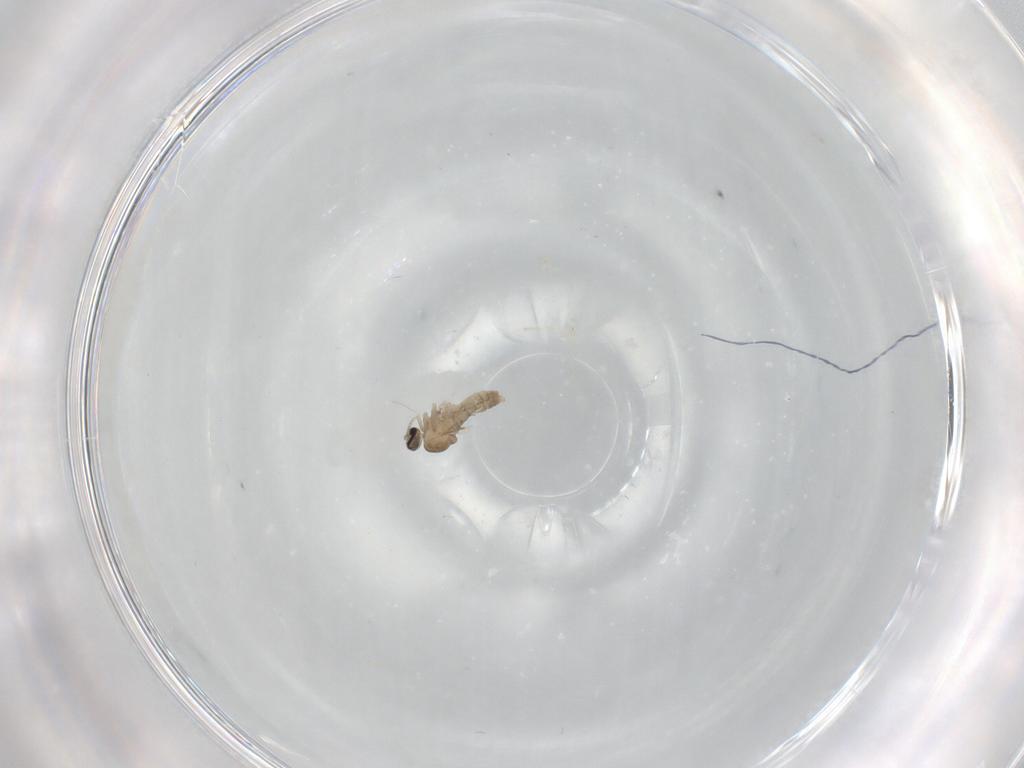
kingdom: Animalia
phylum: Arthropoda
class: Insecta
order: Diptera
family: Cecidomyiidae
